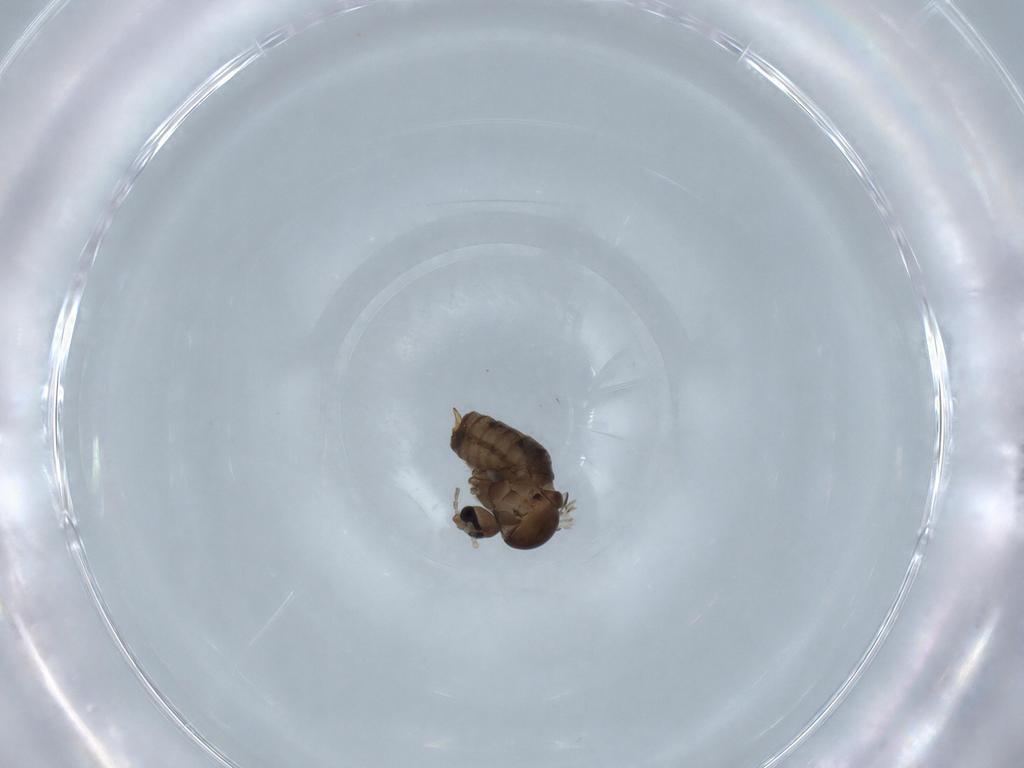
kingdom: Animalia
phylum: Arthropoda
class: Insecta
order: Diptera
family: Psychodidae
